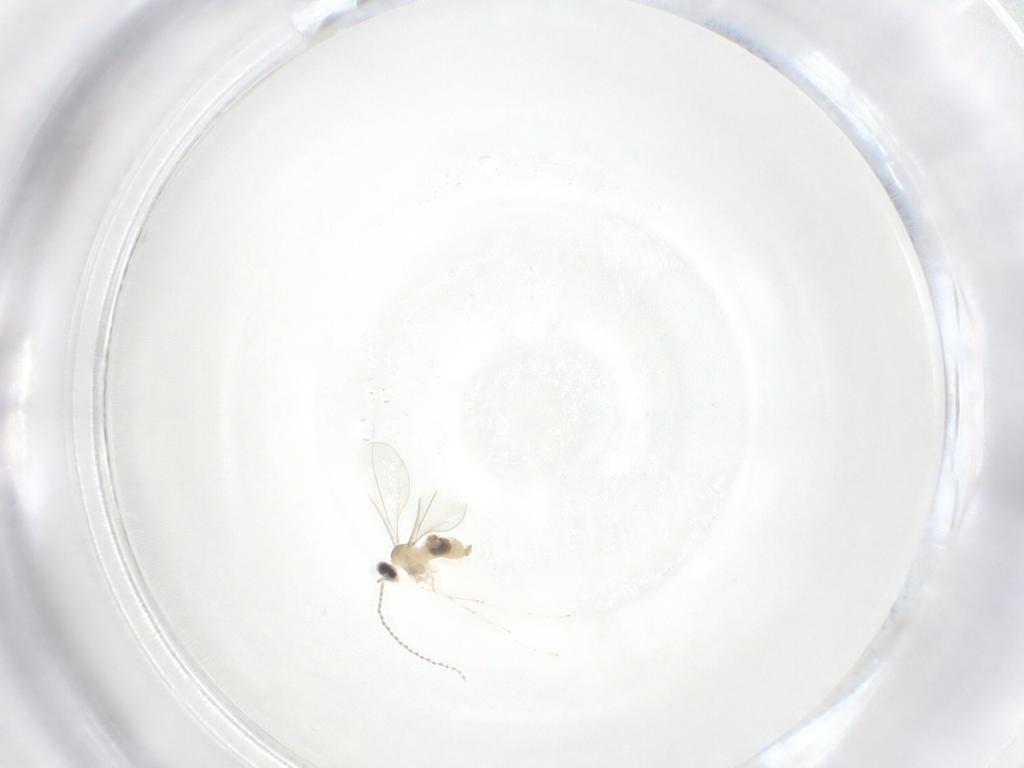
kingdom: Animalia
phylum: Arthropoda
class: Insecta
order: Diptera
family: Cecidomyiidae
